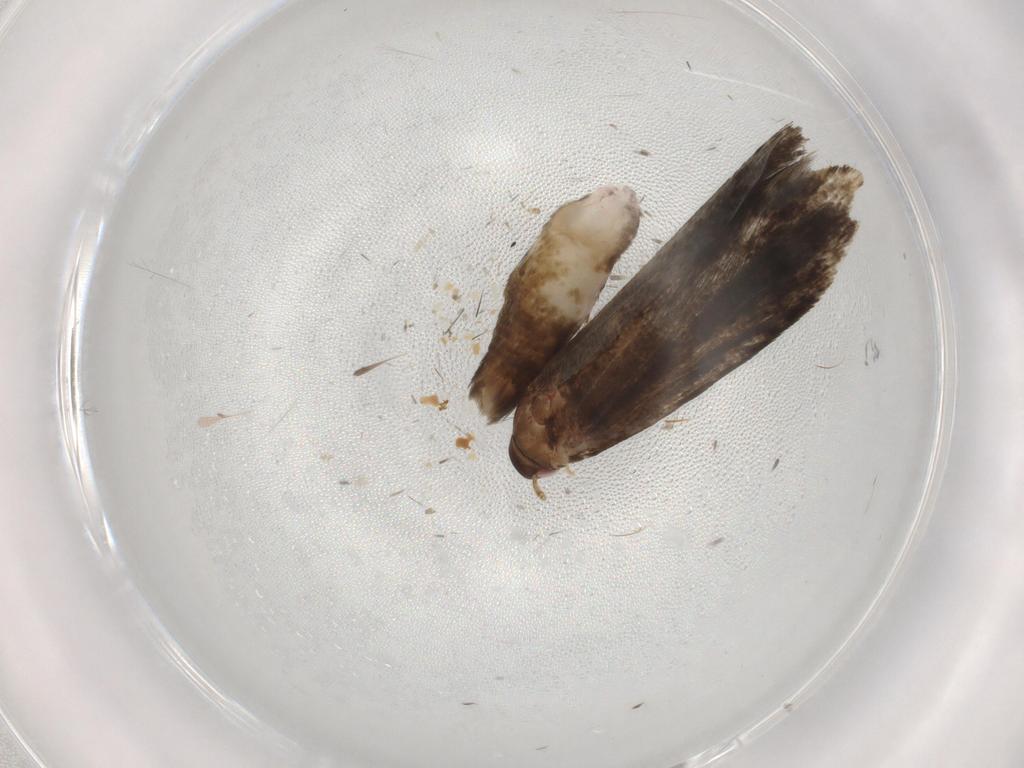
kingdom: Animalia
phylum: Arthropoda
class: Insecta
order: Lepidoptera
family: Gelechiidae
